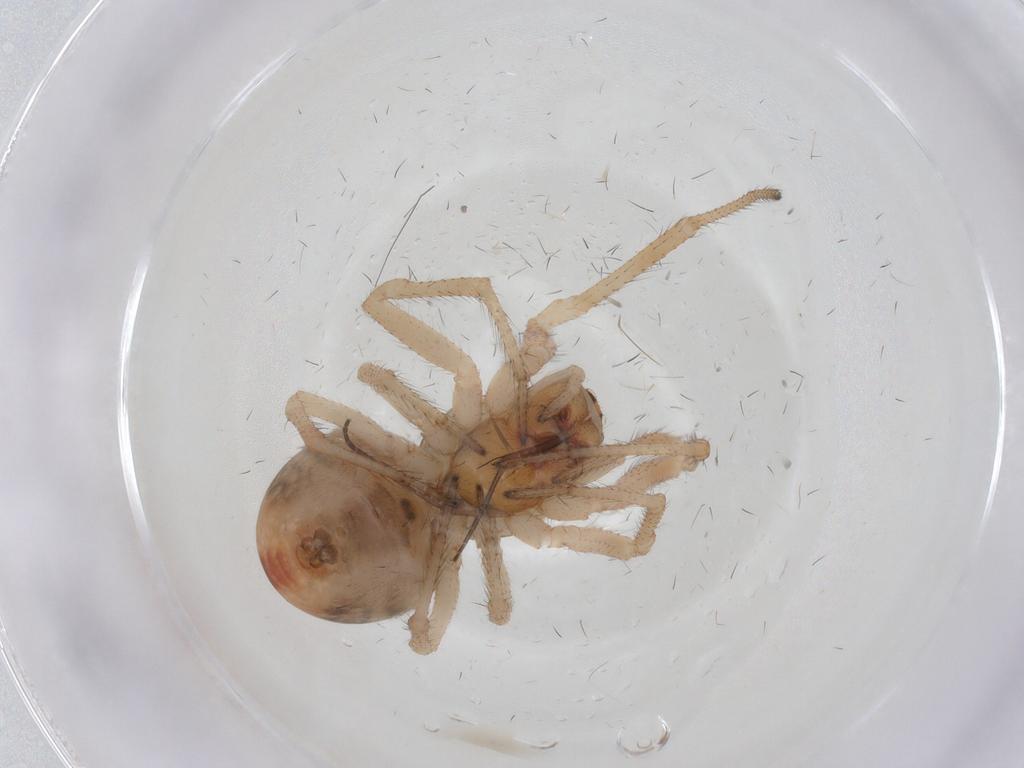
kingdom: Animalia
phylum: Arthropoda
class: Arachnida
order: Araneae
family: Theridiidae
